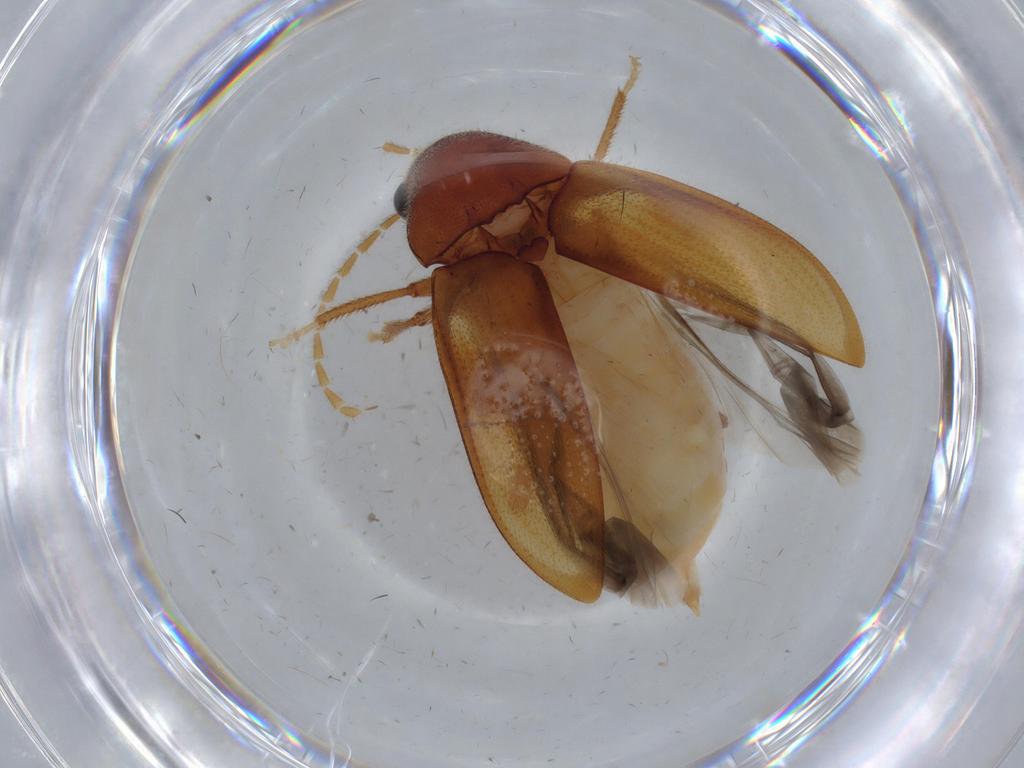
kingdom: Animalia
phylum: Arthropoda
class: Insecta
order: Coleoptera
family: Ptilodactylidae
